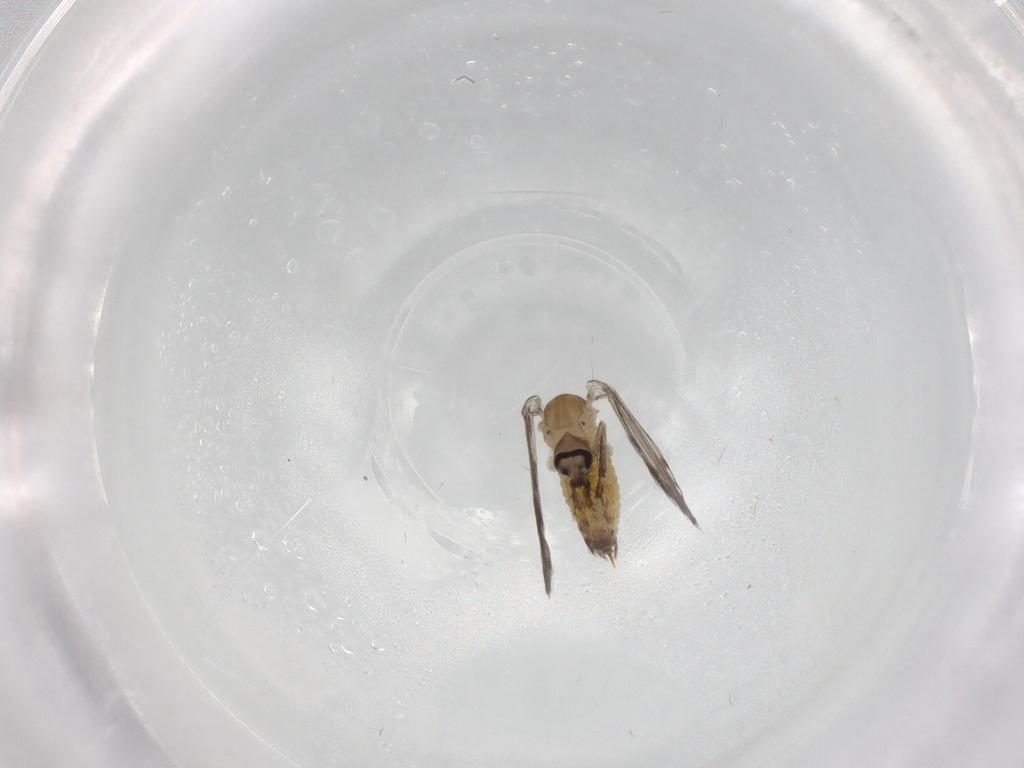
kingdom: Animalia
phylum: Arthropoda
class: Insecta
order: Diptera
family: Psychodidae
